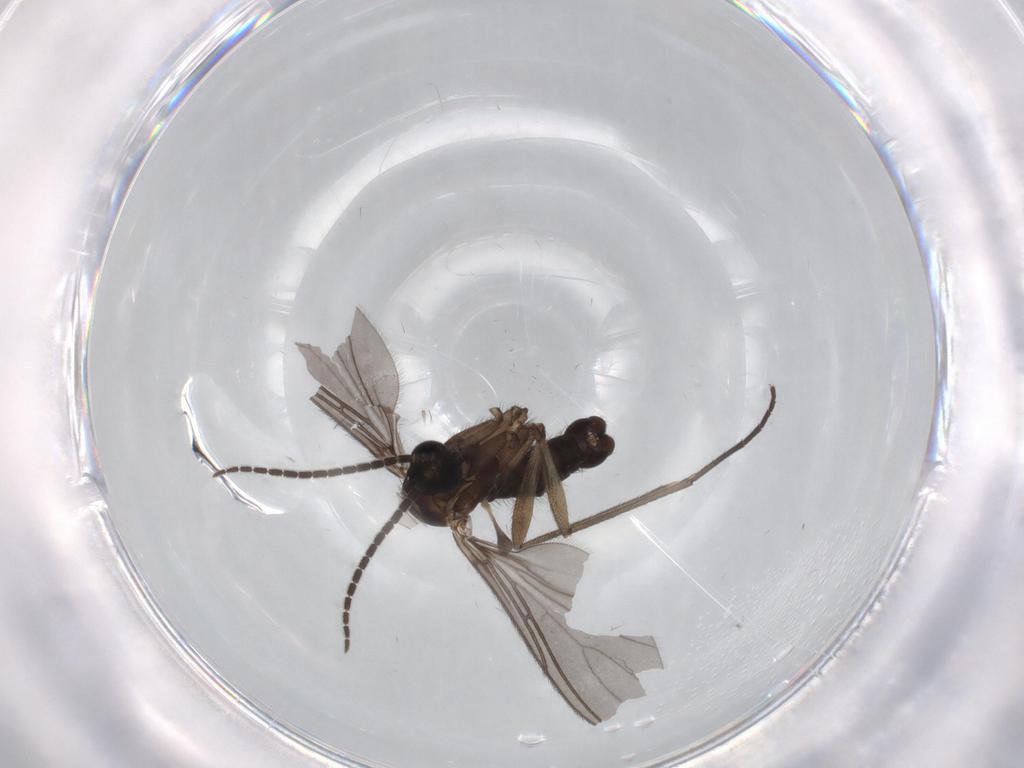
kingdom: Animalia
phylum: Arthropoda
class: Insecta
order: Diptera
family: Sciaridae
